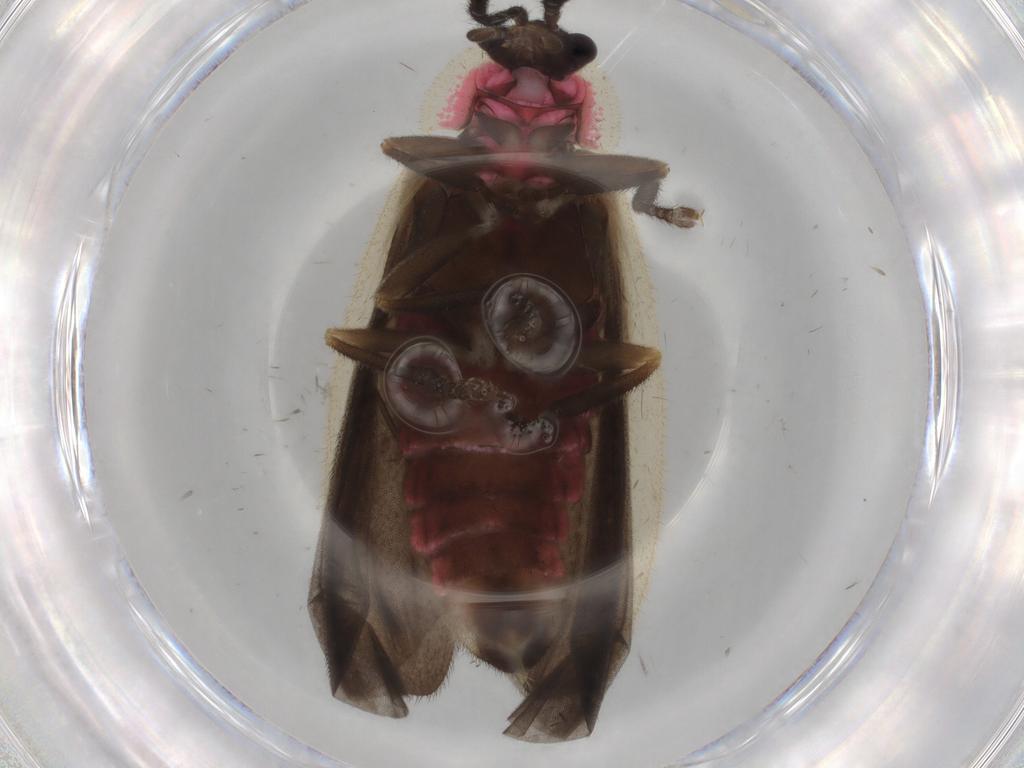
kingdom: Animalia
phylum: Arthropoda
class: Insecta
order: Coleoptera
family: Lampyridae
